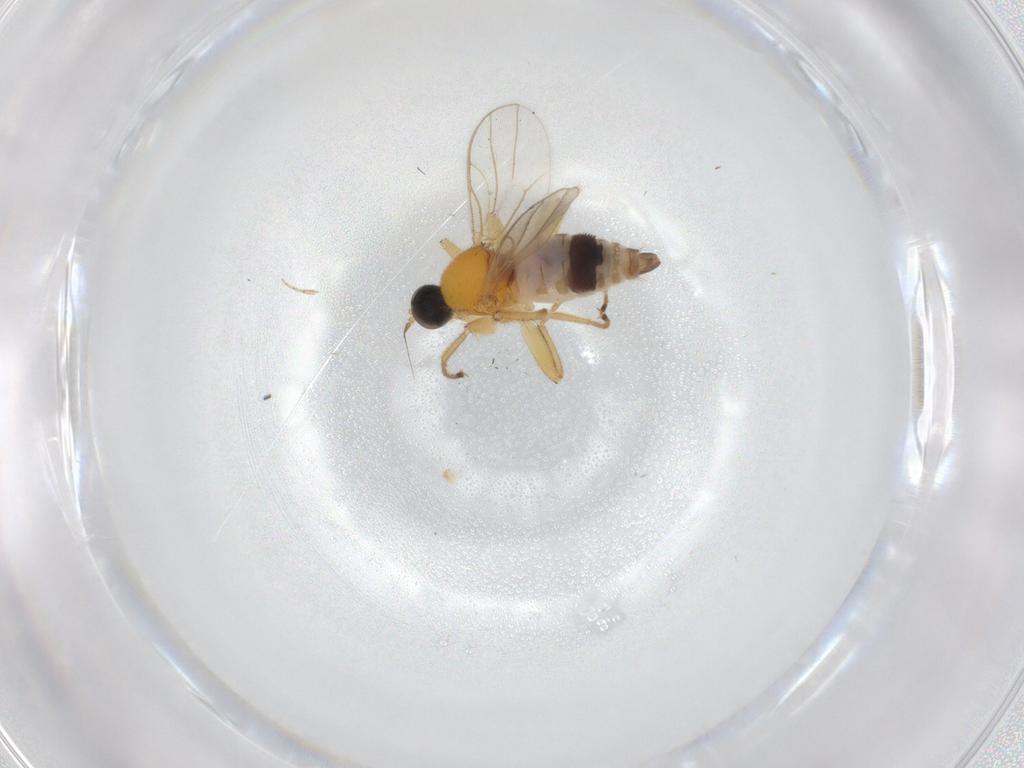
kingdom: Animalia
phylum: Arthropoda
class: Insecta
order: Diptera
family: Hybotidae
